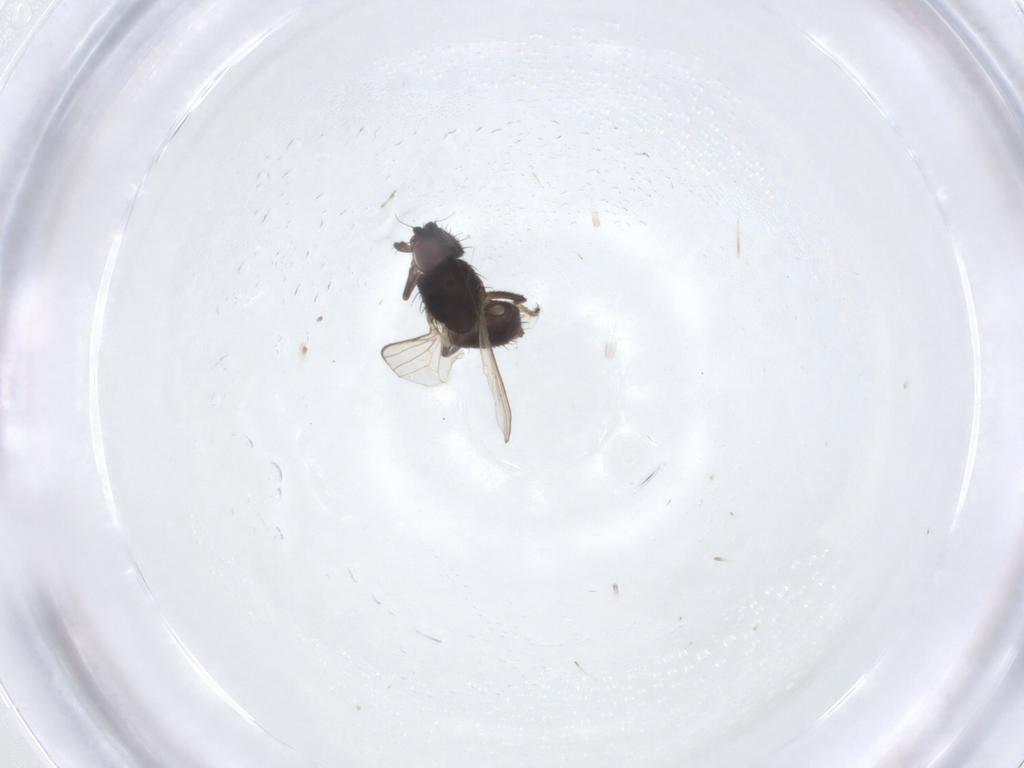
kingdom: Animalia
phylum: Arthropoda
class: Insecta
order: Diptera
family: Milichiidae
